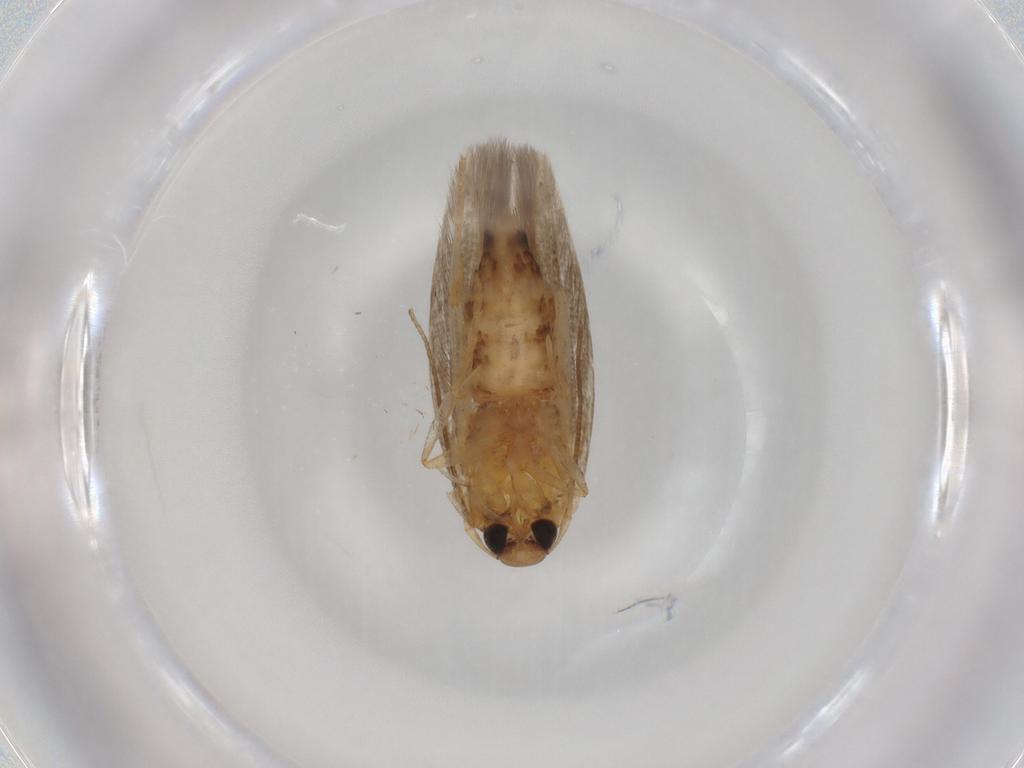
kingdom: Animalia
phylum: Arthropoda
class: Insecta
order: Lepidoptera
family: Cosmopterigidae
